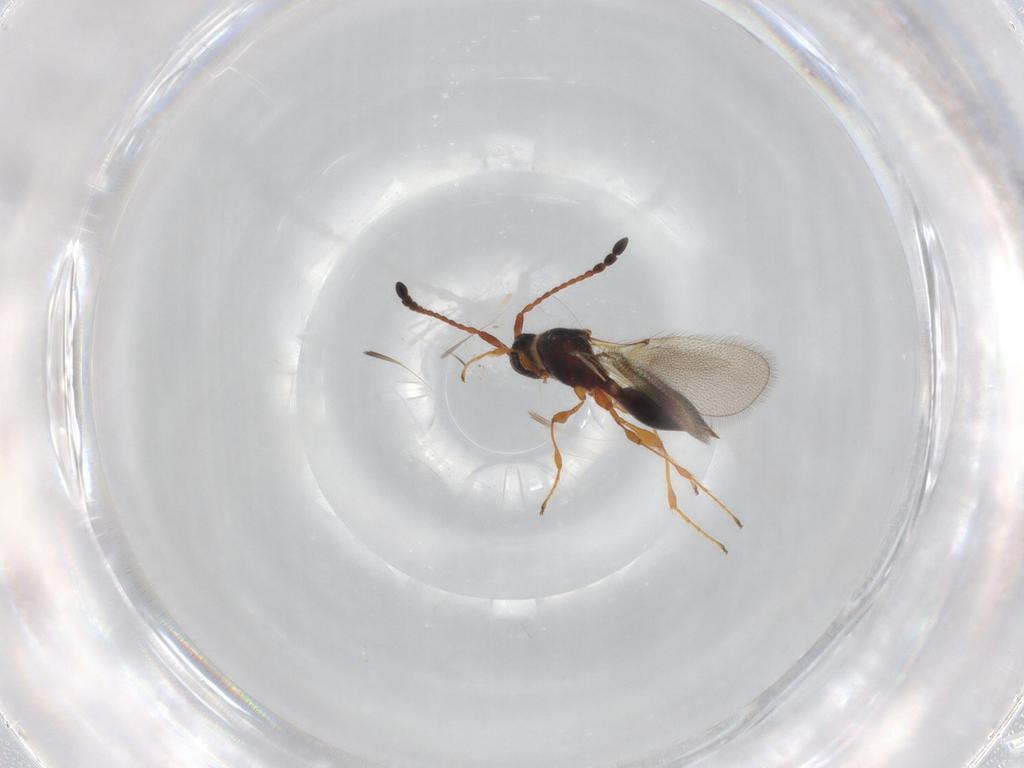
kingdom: Animalia
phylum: Arthropoda
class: Insecta
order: Hymenoptera
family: Diapriidae
